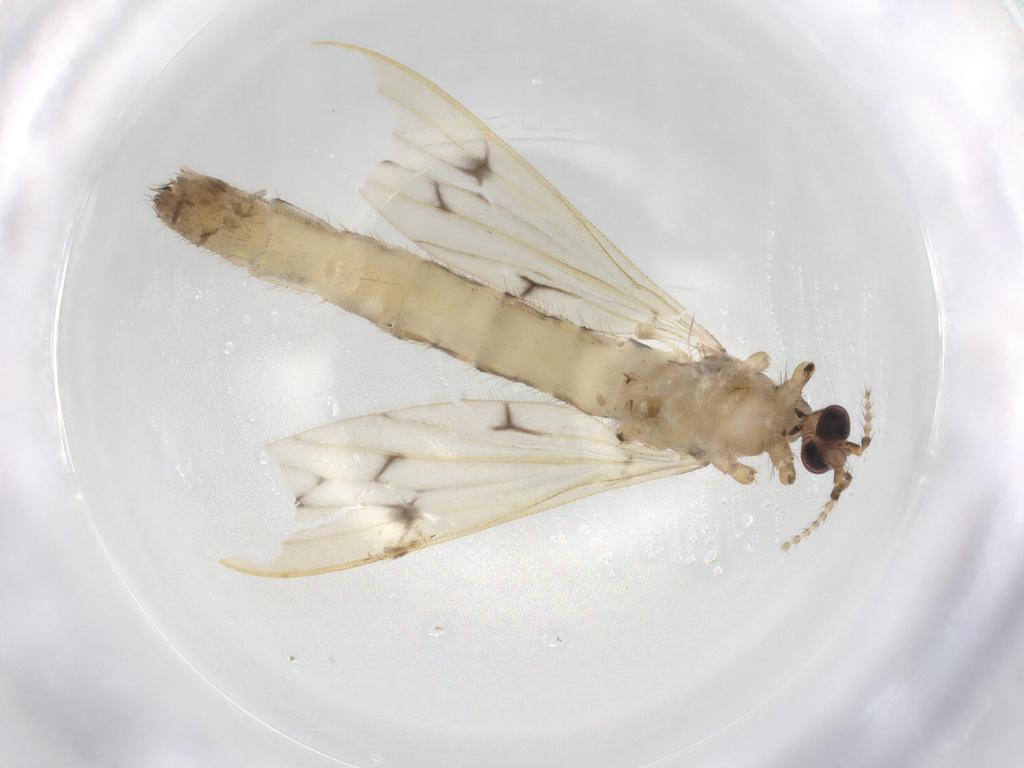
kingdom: Animalia
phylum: Arthropoda
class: Insecta
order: Diptera
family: Limoniidae
